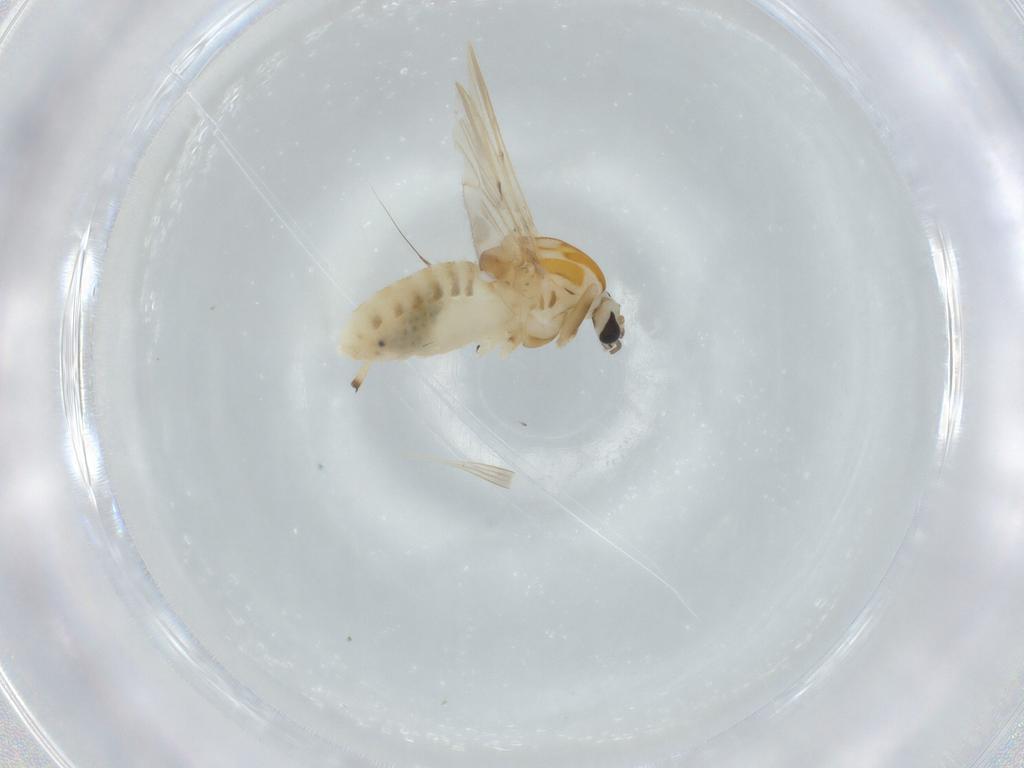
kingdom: Animalia
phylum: Arthropoda
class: Insecta
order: Diptera
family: Chironomidae
